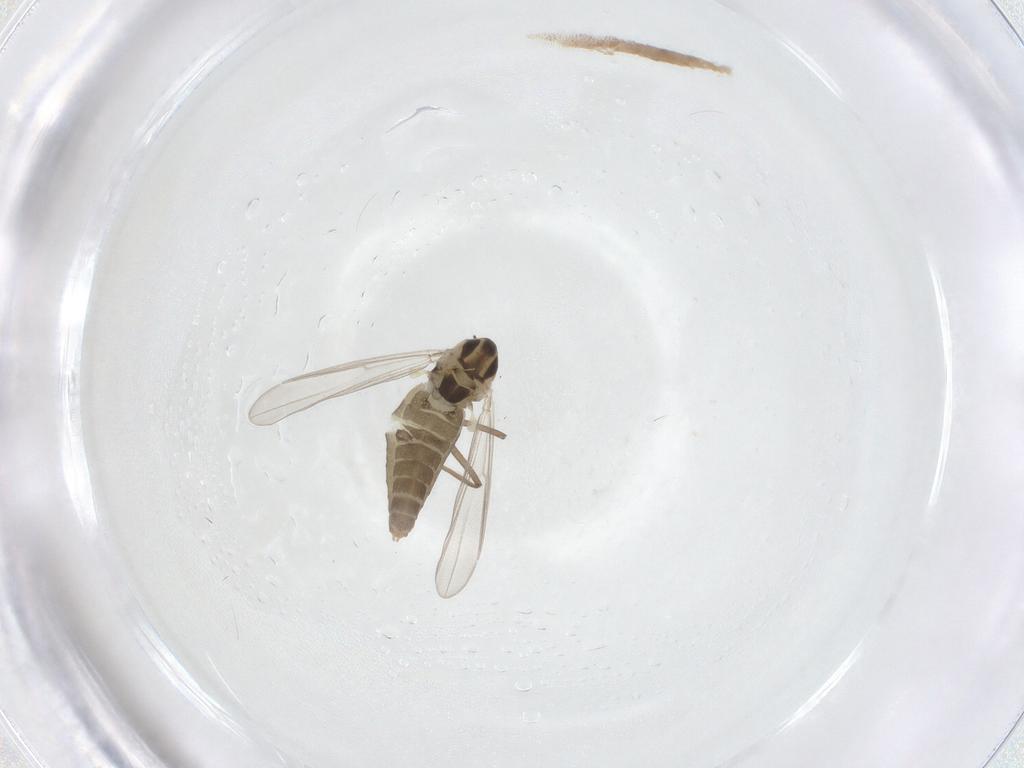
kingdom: Animalia
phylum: Arthropoda
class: Insecta
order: Diptera
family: Chironomidae
